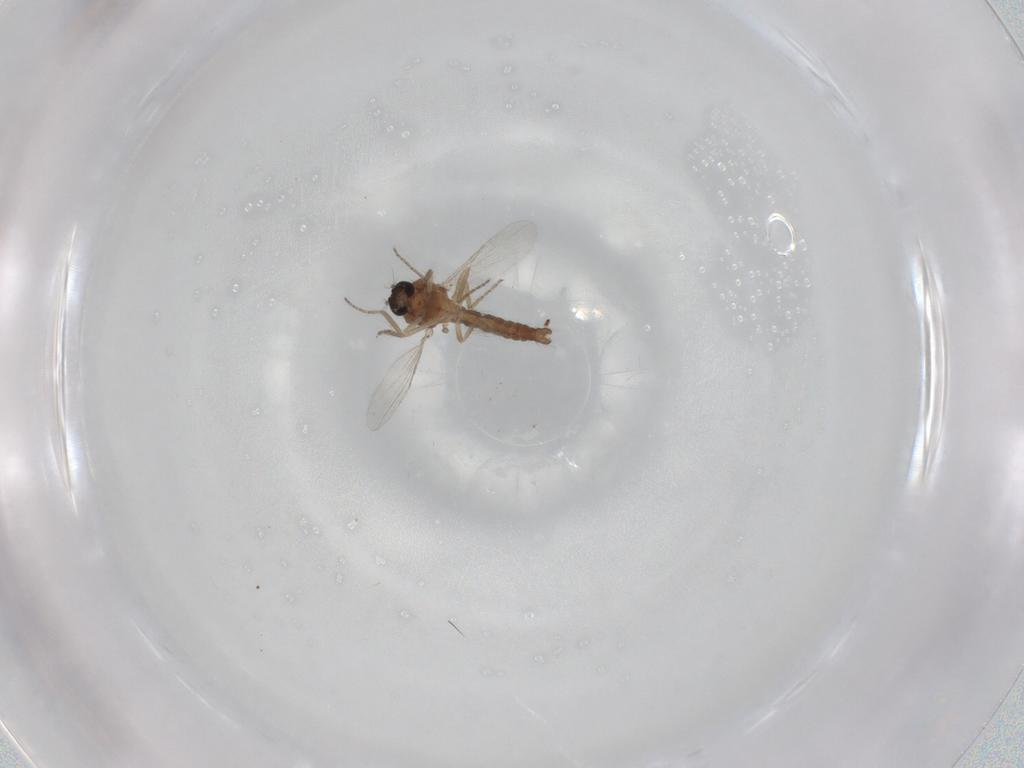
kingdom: Animalia
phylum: Arthropoda
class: Insecta
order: Diptera
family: Ceratopogonidae
